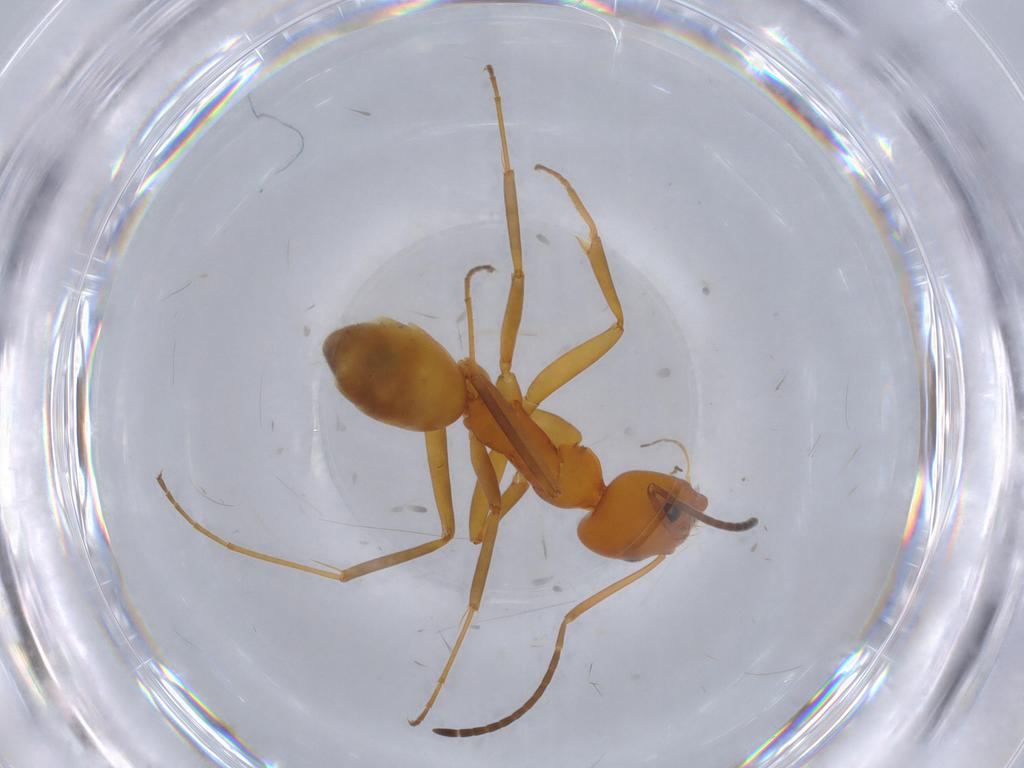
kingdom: Animalia
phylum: Arthropoda
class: Insecta
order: Hymenoptera
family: Formicidae
